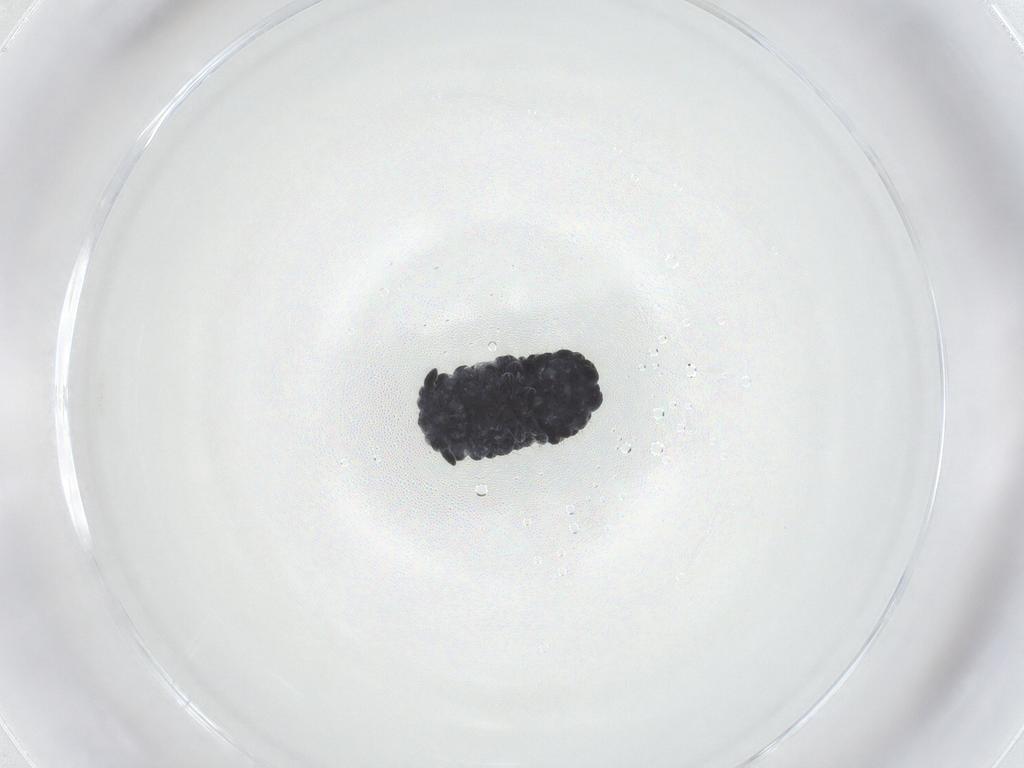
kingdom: Animalia
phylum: Arthropoda
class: Collembola
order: Poduromorpha
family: Neanuridae
